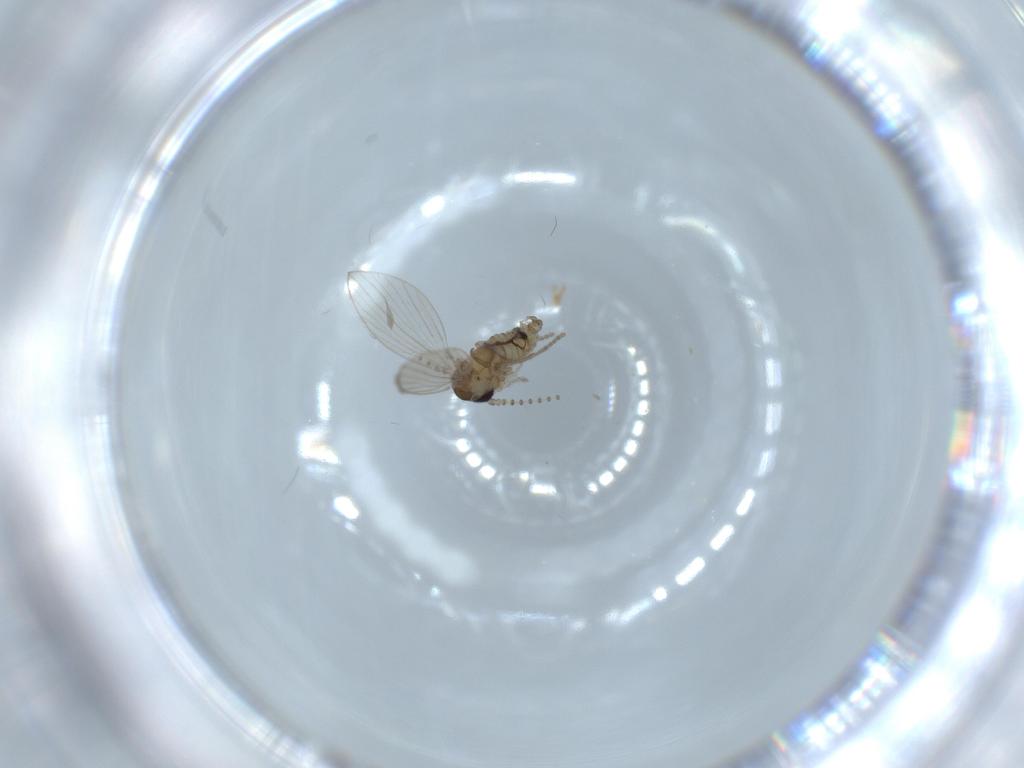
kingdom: Animalia
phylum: Arthropoda
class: Insecta
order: Diptera
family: Psychodidae
